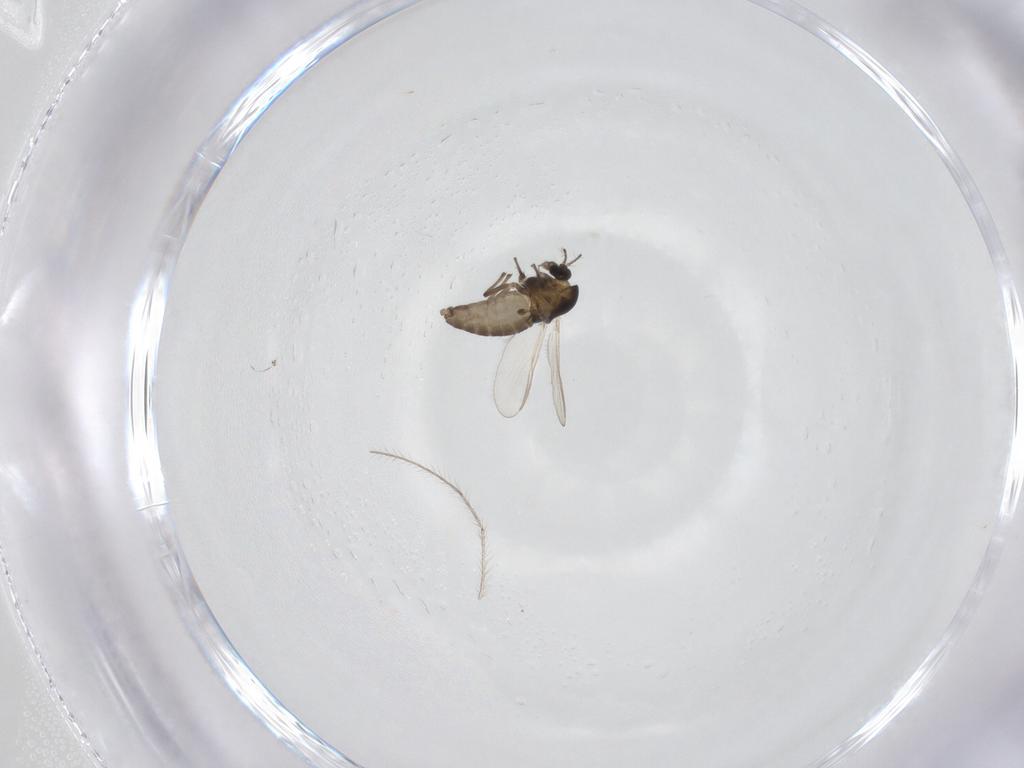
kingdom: Animalia
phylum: Arthropoda
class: Insecta
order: Diptera
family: Chironomidae
